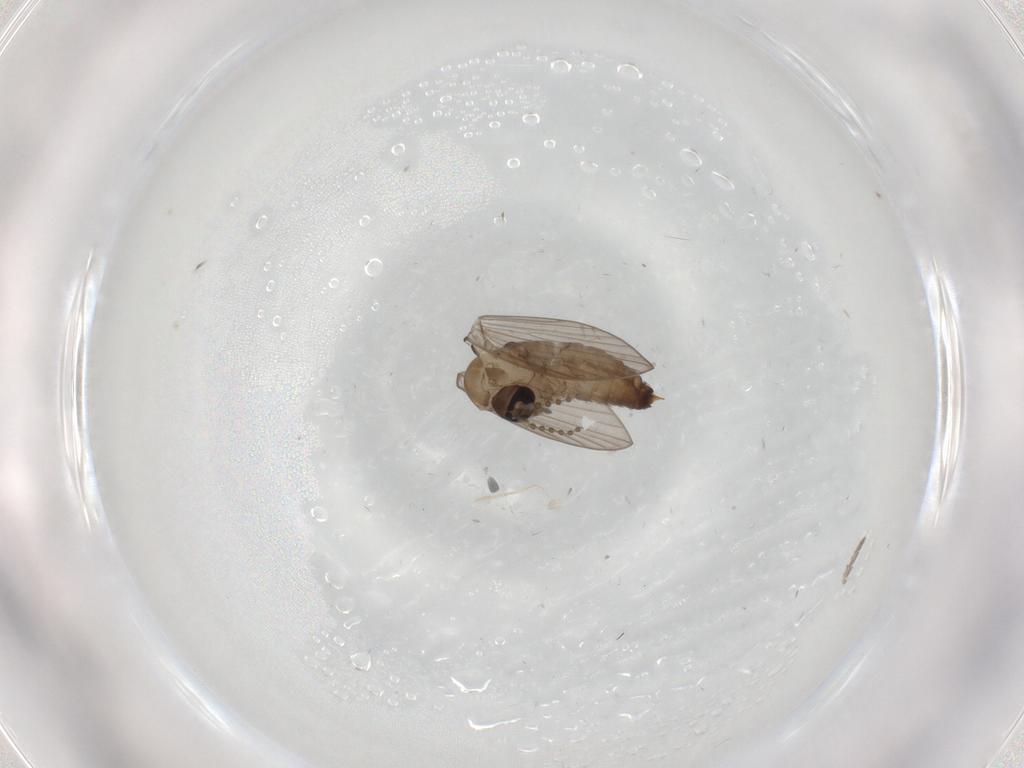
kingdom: Animalia
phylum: Arthropoda
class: Insecta
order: Diptera
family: Psychodidae
